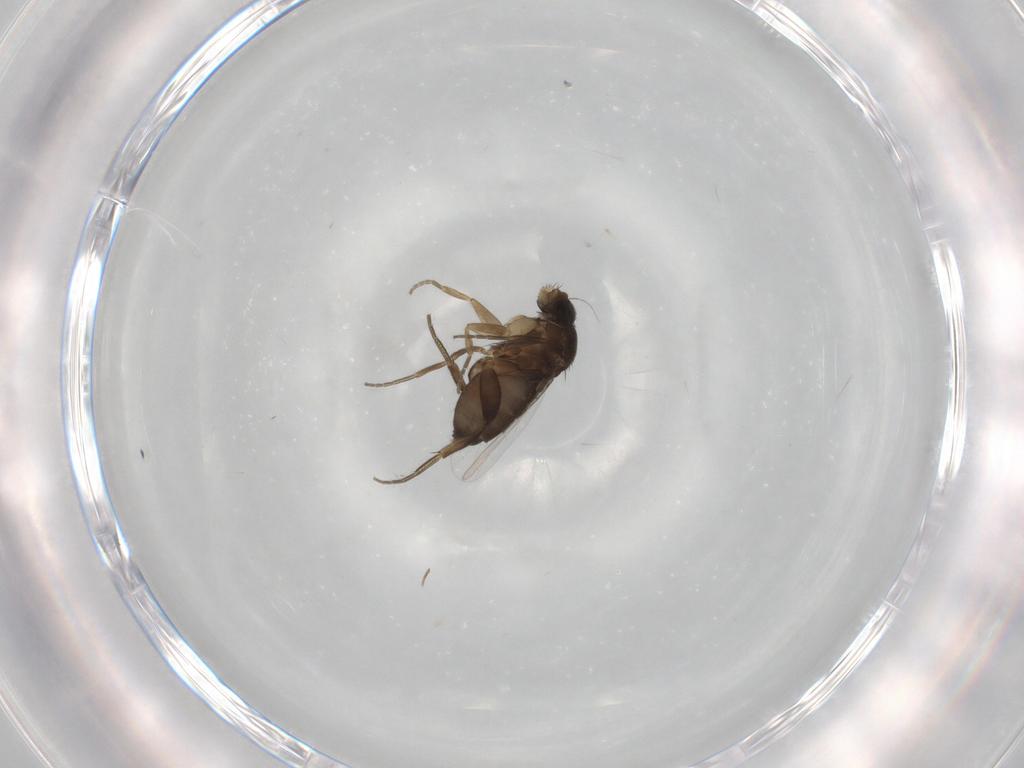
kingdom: Animalia
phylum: Arthropoda
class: Insecta
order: Diptera
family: Phoridae
